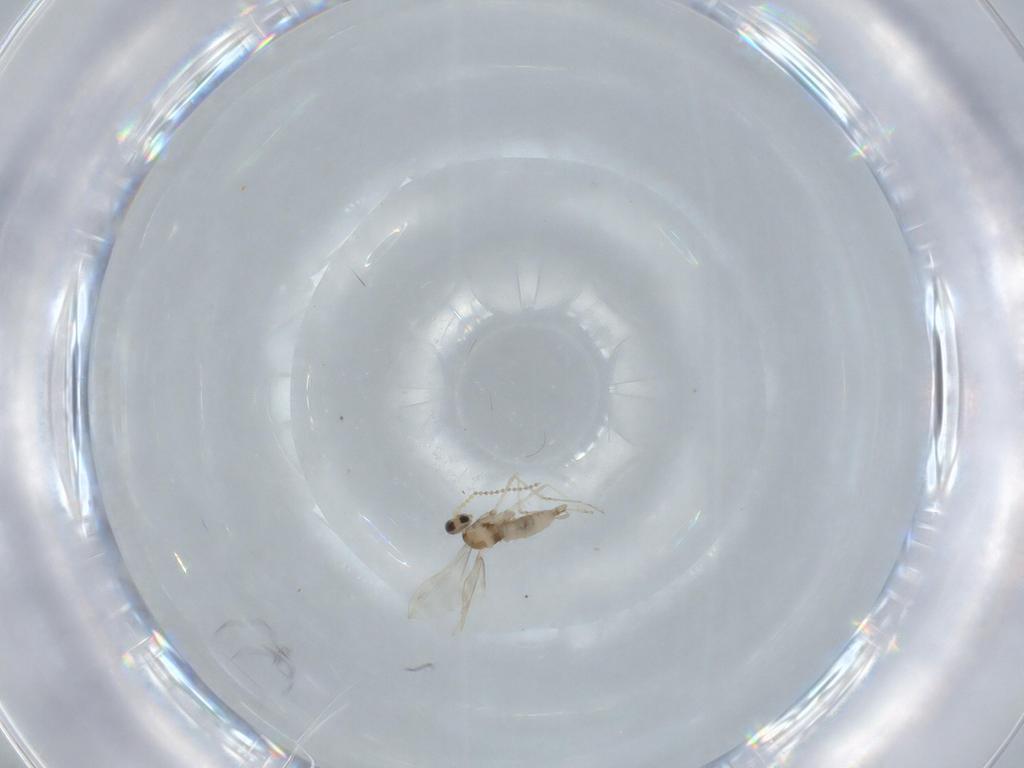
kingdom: Animalia
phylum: Arthropoda
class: Insecta
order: Diptera
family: Cecidomyiidae
